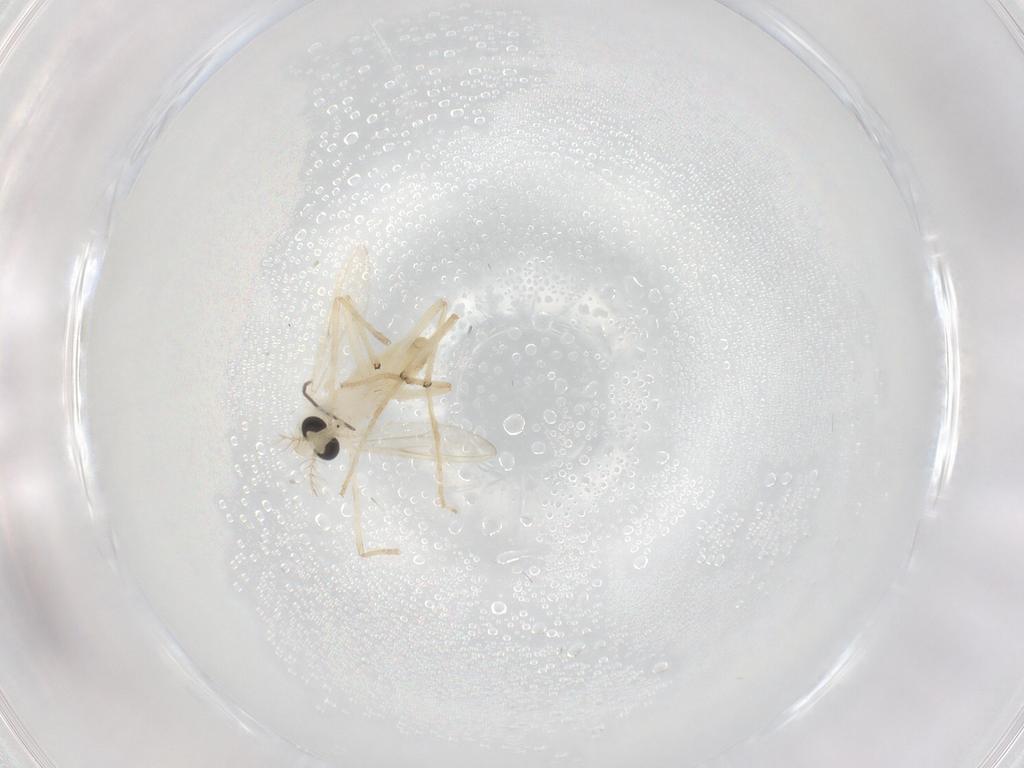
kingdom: Animalia
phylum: Arthropoda
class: Insecta
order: Diptera
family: Chironomidae
